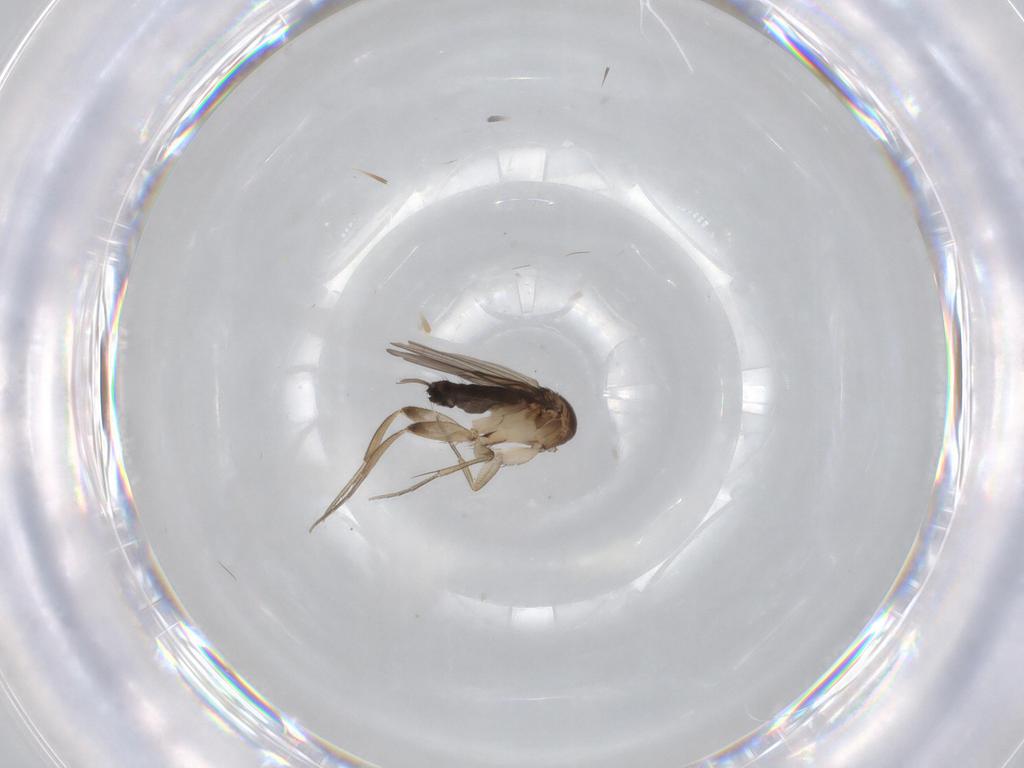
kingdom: Animalia
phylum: Arthropoda
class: Insecta
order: Diptera
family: Phoridae
